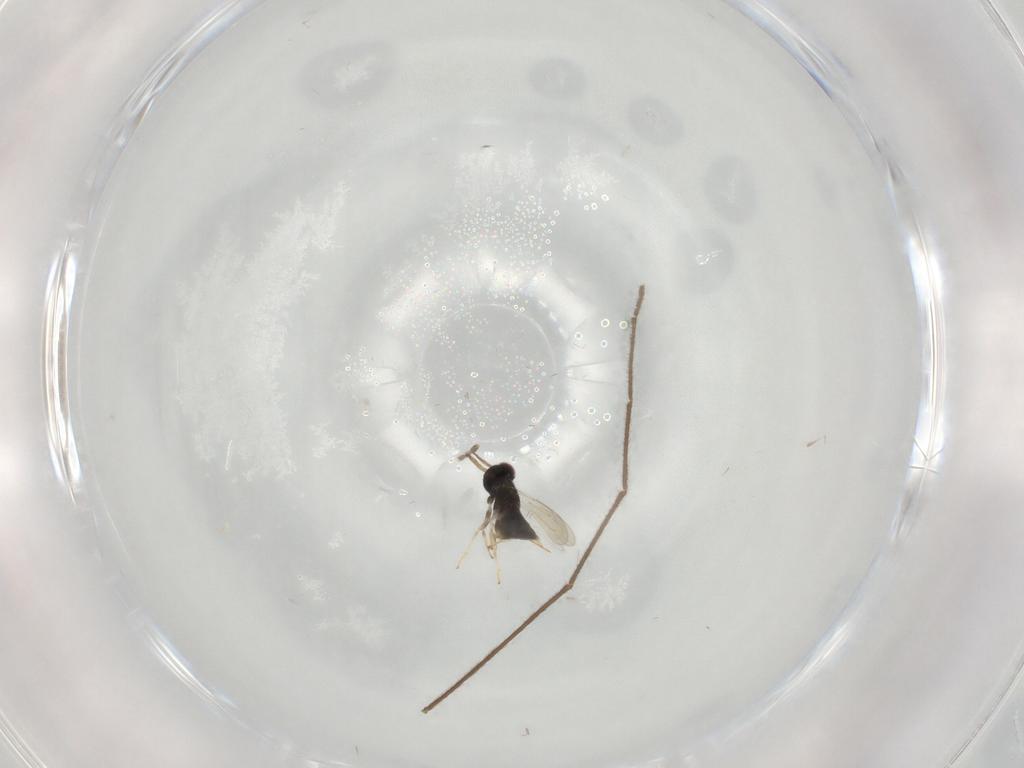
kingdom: Animalia
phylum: Arthropoda
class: Insecta
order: Hymenoptera
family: Aphelinidae
